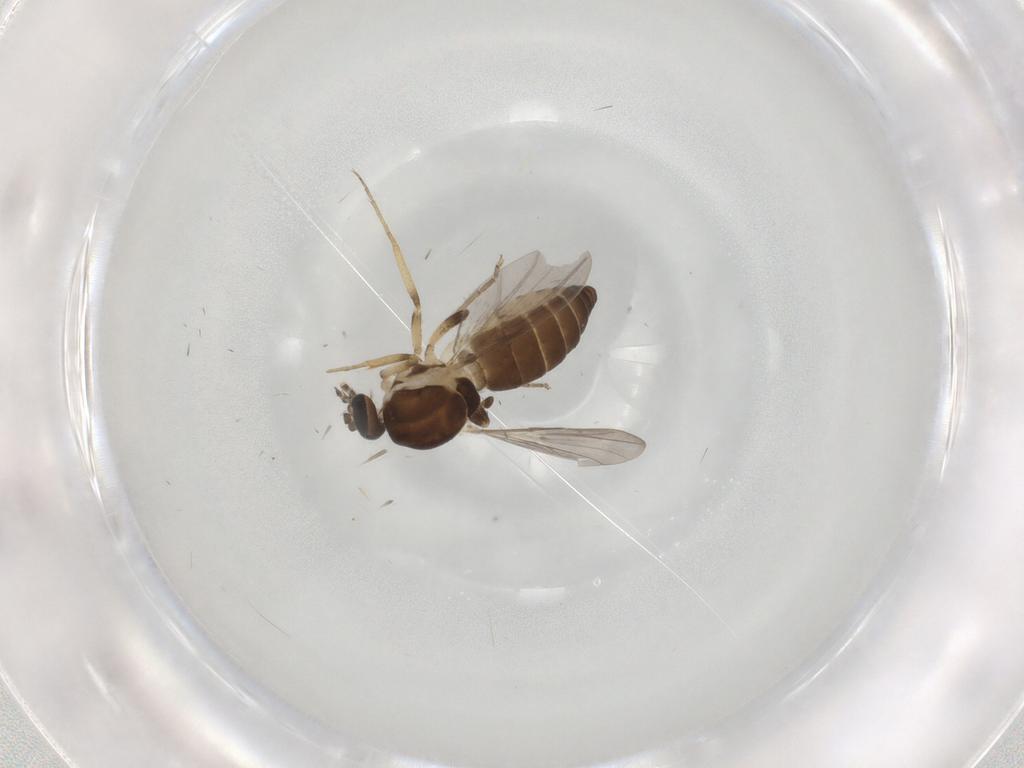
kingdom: Animalia
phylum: Arthropoda
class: Insecta
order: Diptera
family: Ceratopogonidae
